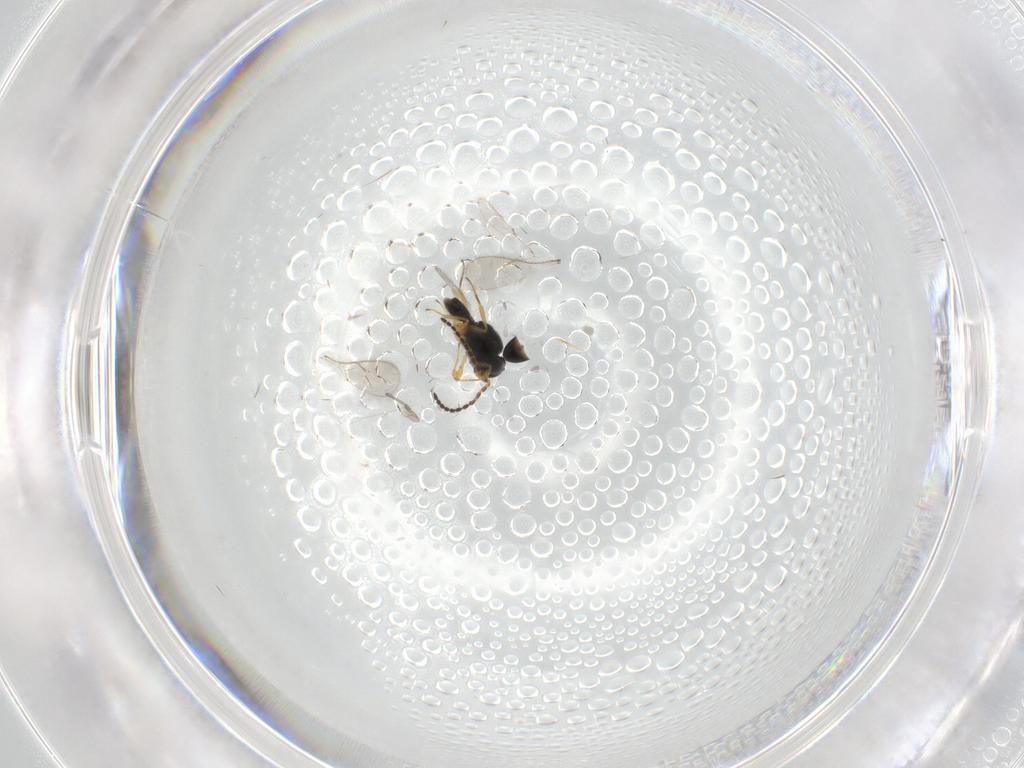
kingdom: Animalia
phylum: Arthropoda
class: Insecta
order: Hymenoptera
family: Scelionidae
